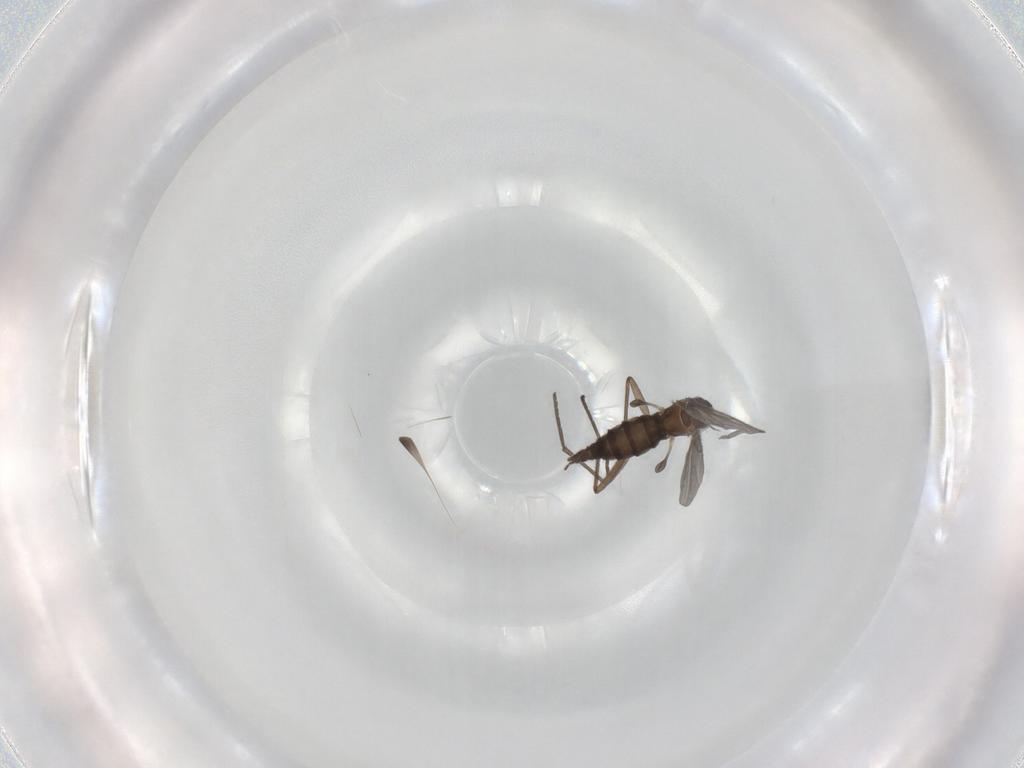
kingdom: Animalia
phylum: Arthropoda
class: Insecta
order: Diptera
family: Sciaridae
